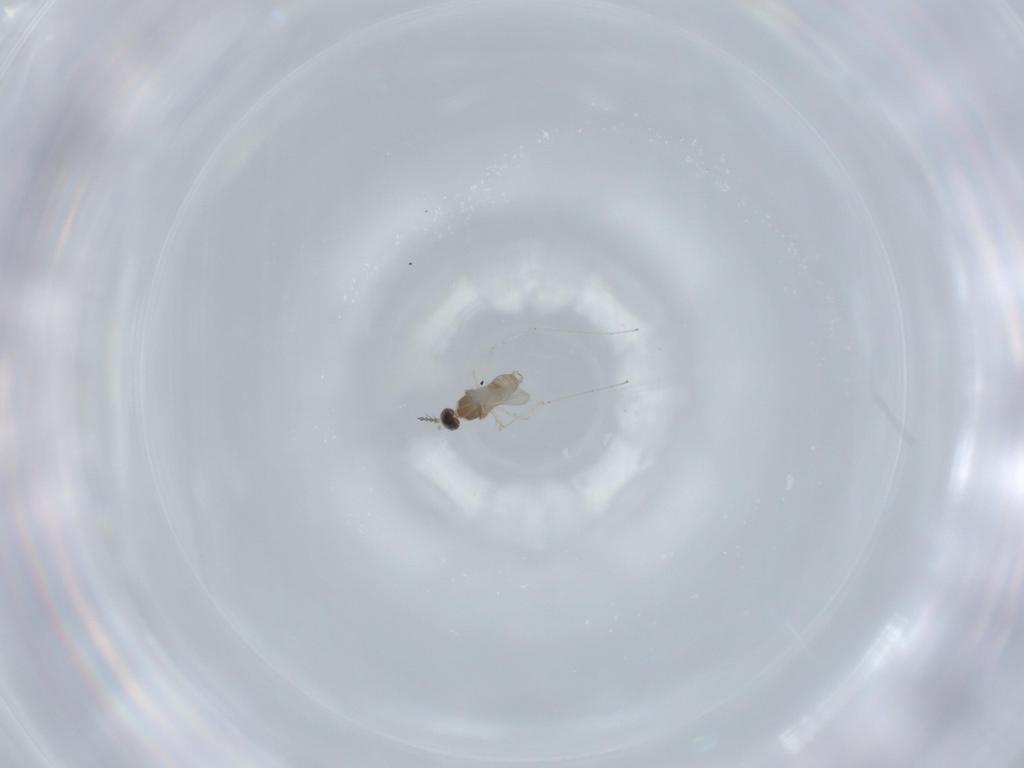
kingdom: Animalia
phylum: Arthropoda
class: Insecta
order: Diptera
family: Cecidomyiidae
